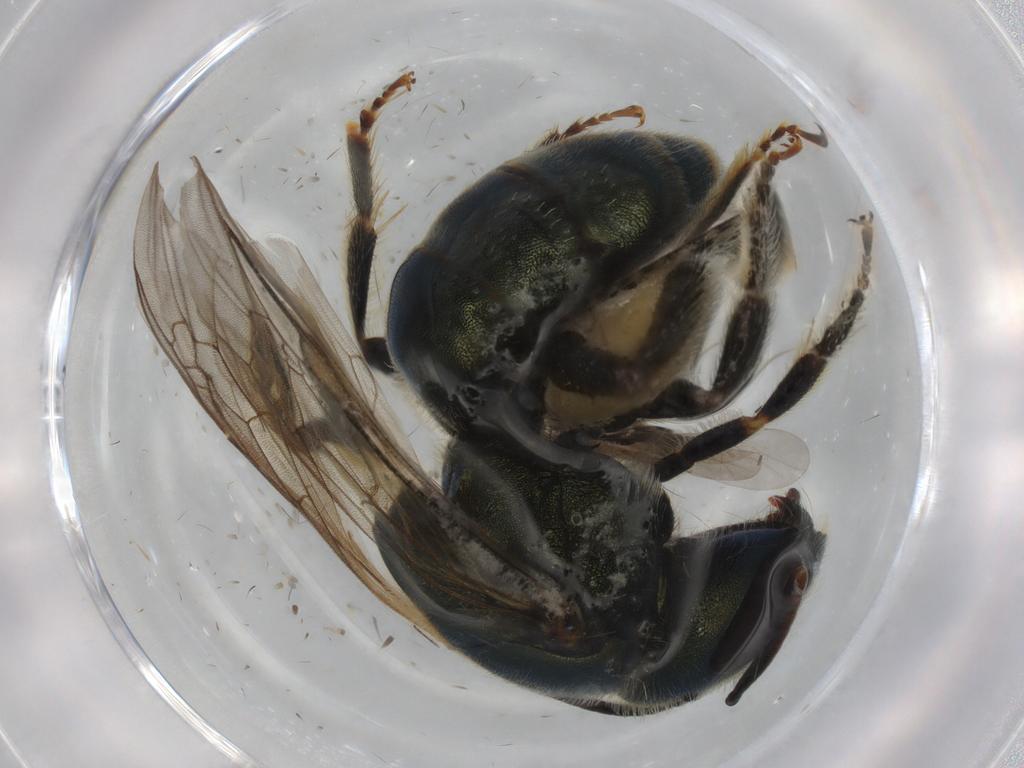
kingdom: Animalia
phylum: Arthropoda
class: Insecta
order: Hymenoptera
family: Halictidae
